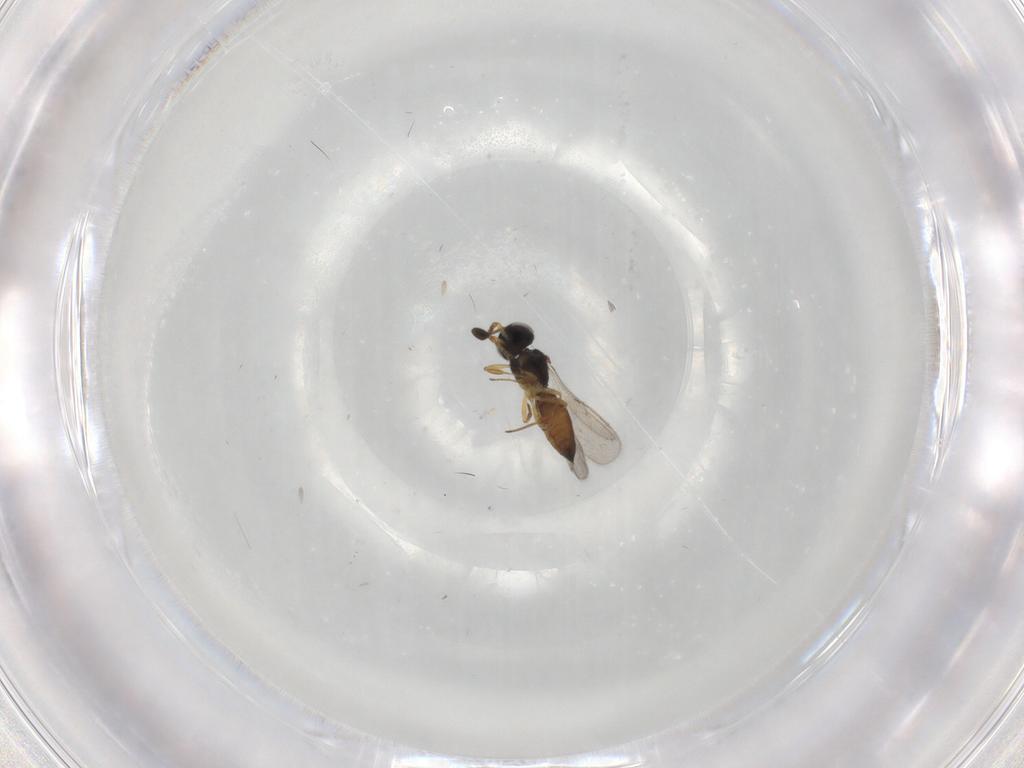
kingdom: Animalia
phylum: Arthropoda
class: Insecta
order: Hymenoptera
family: Scelionidae
